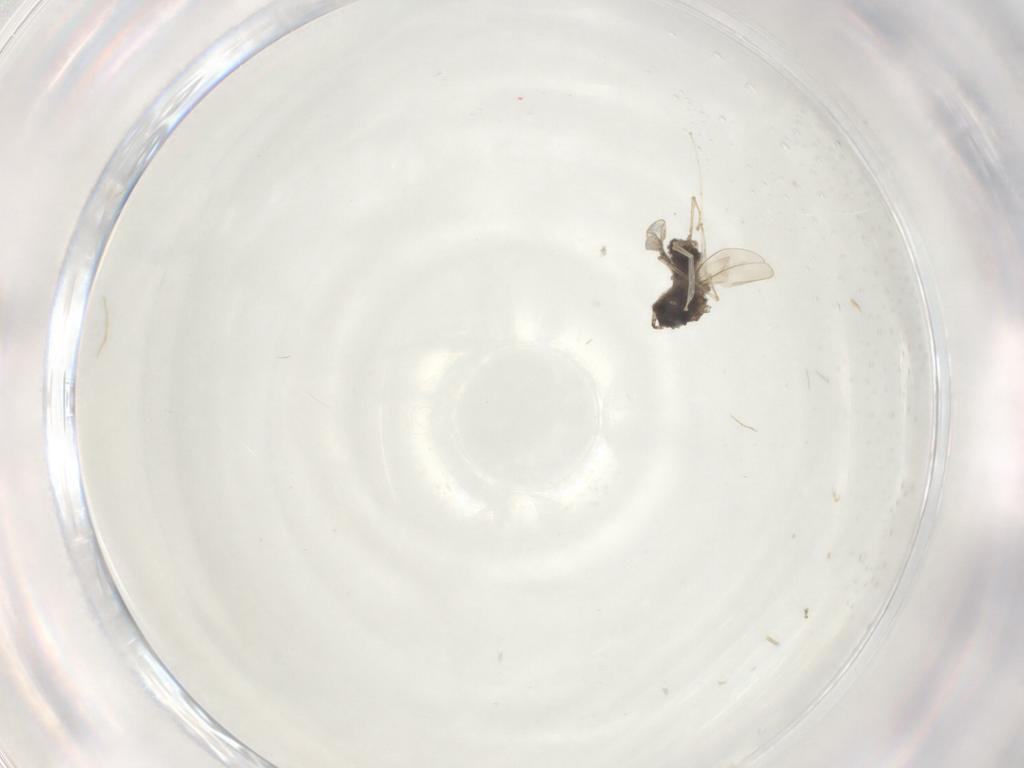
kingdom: Animalia
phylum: Arthropoda
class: Insecta
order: Diptera
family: Cecidomyiidae
